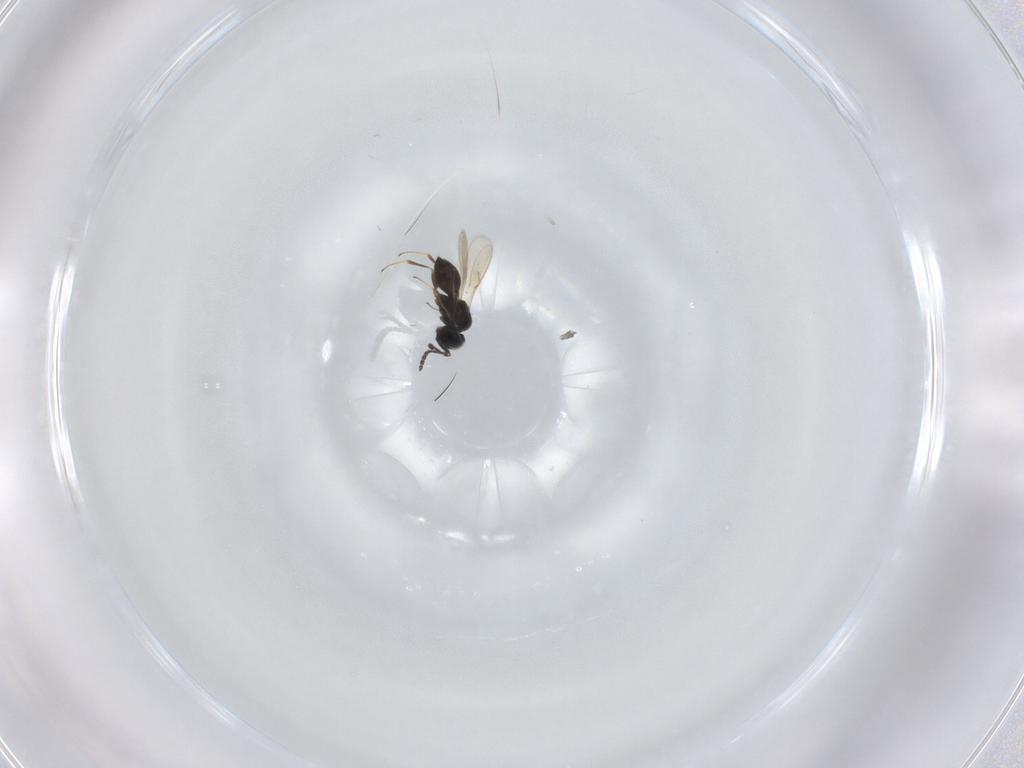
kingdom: Animalia
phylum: Arthropoda
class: Insecta
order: Hymenoptera
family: Scelionidae
